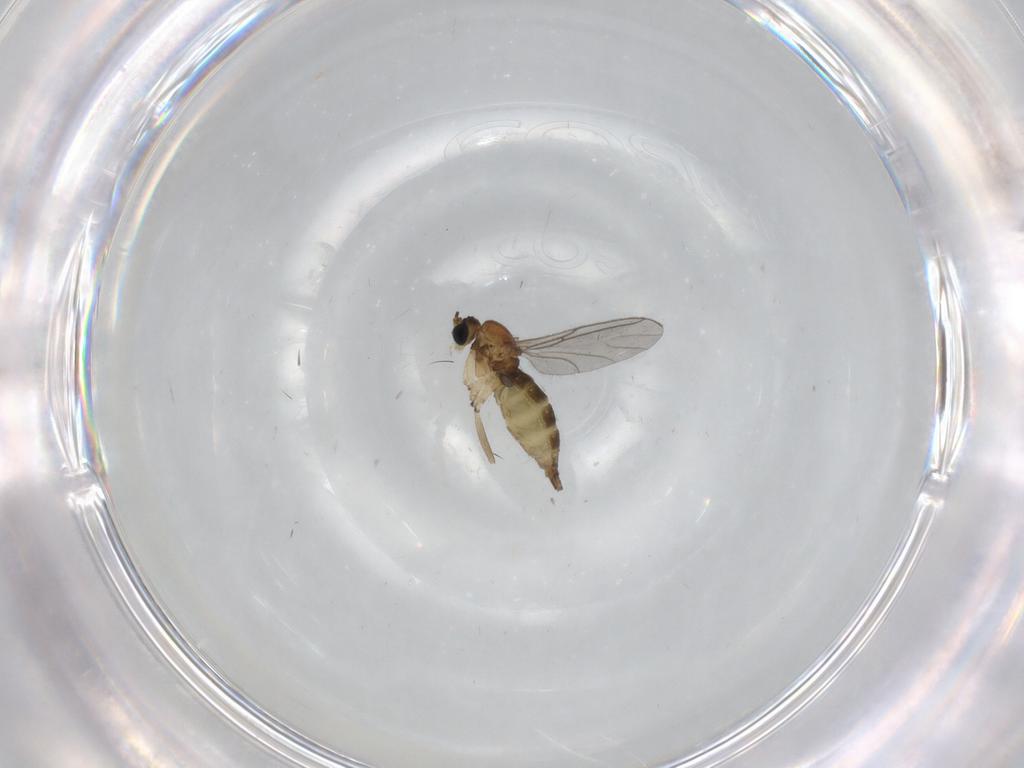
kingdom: Animalia
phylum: Arthropoda
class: Insecta
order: Diptera
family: Sciaridae
